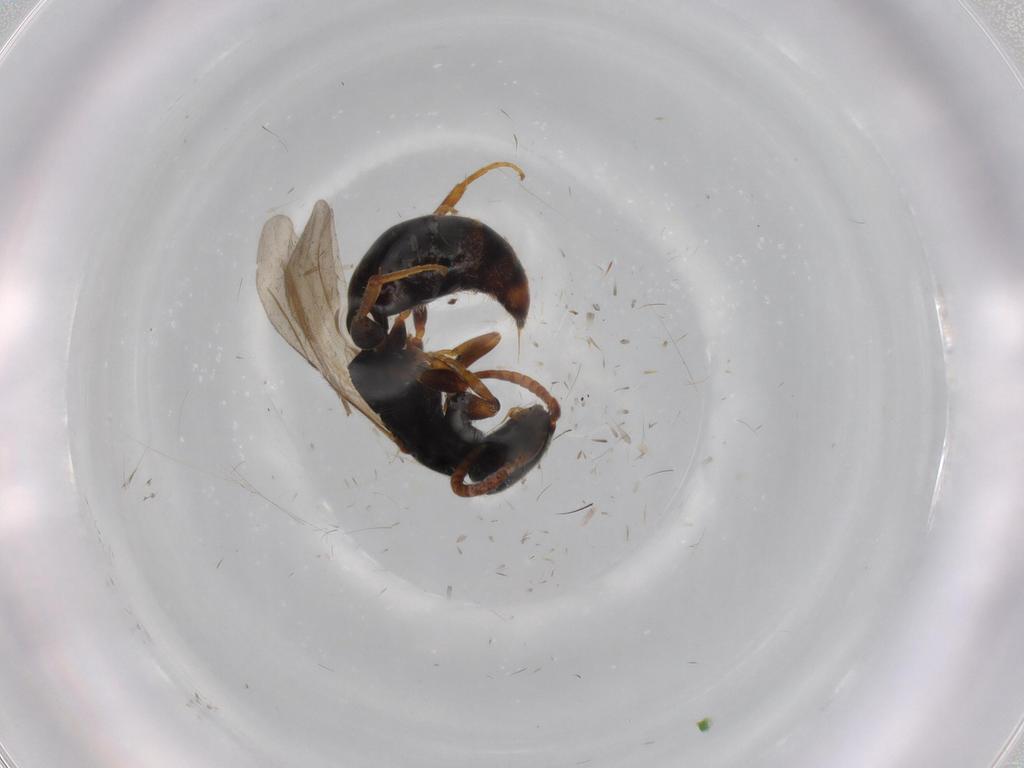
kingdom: Animalia
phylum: Arthropoda
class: Insecta
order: Hymenoptera
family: Bethylidae
